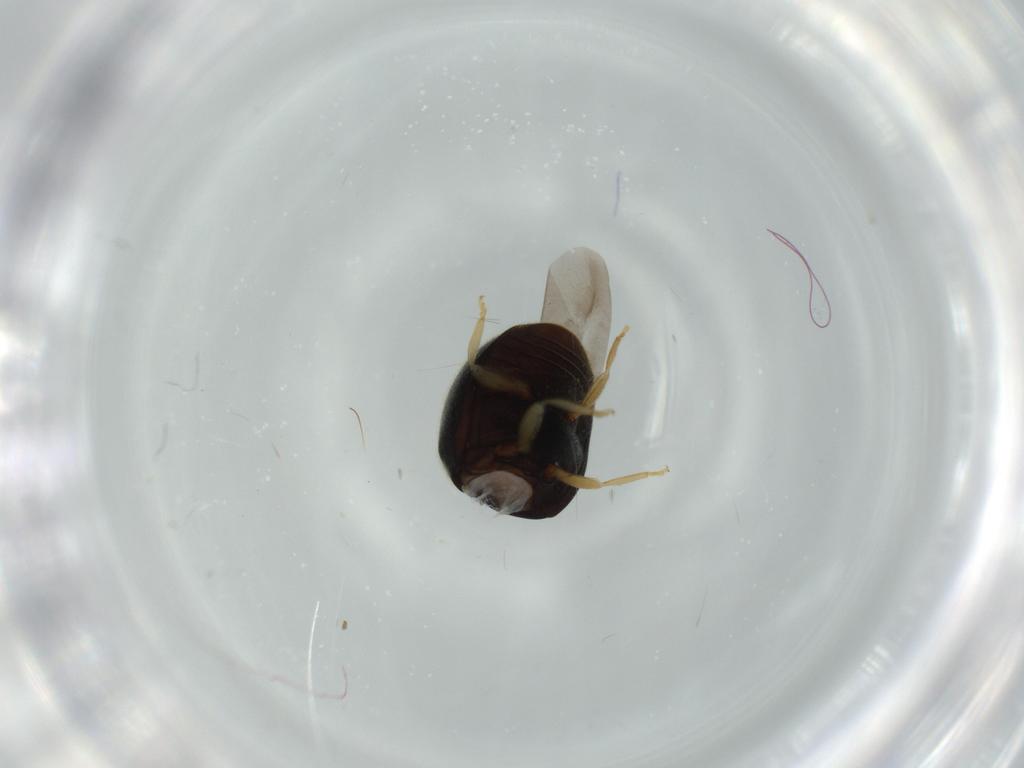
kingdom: Animalia
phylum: Arthropoda
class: Insecta
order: Coleoptera
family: Coccinellidae
